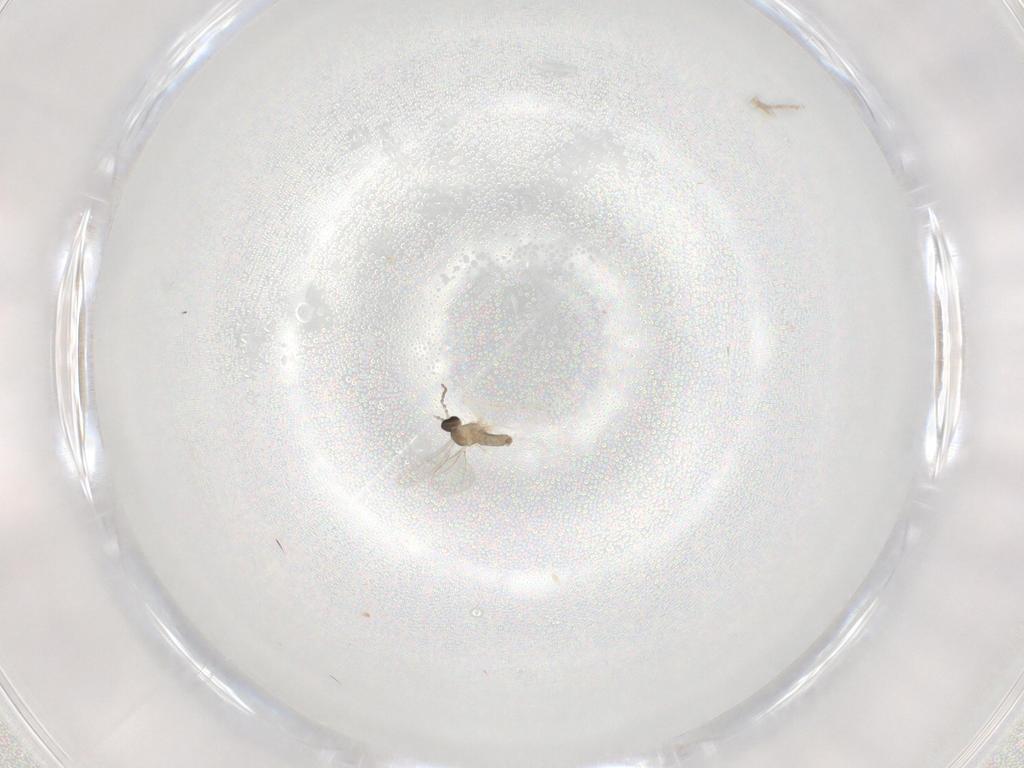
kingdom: Animalia
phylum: Arthropoda
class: Insecta
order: Diptera
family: Cecidomyiidae
